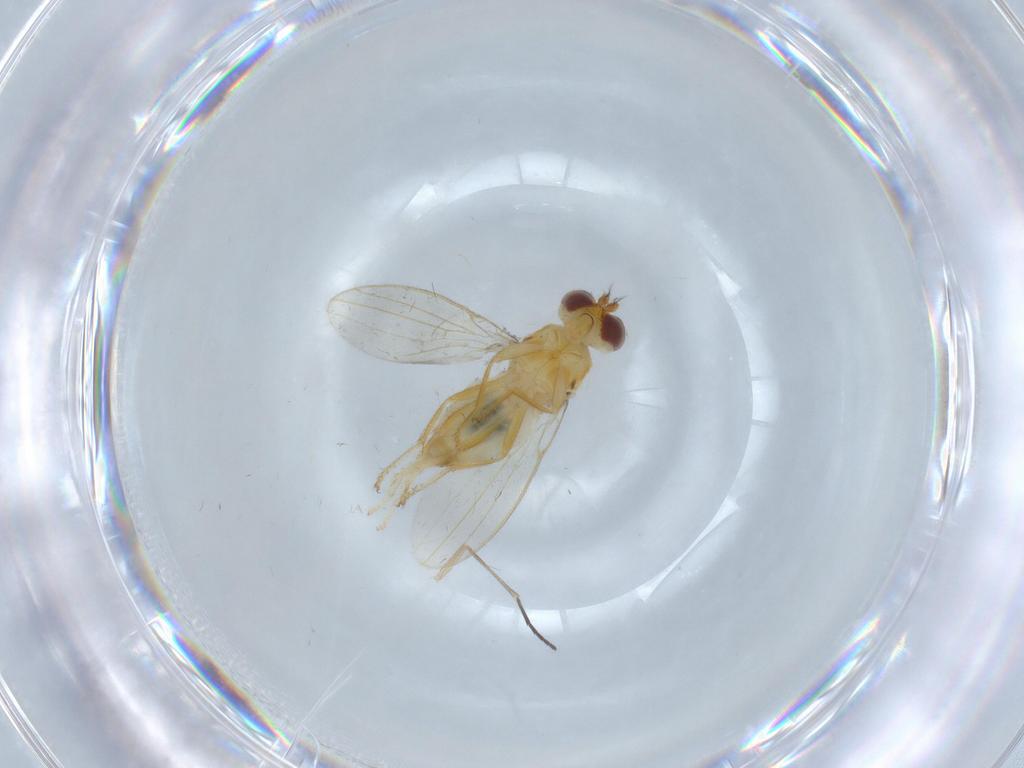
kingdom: Animalia
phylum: Arthropoda
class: Insecta
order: Diptera
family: Periscelididae
